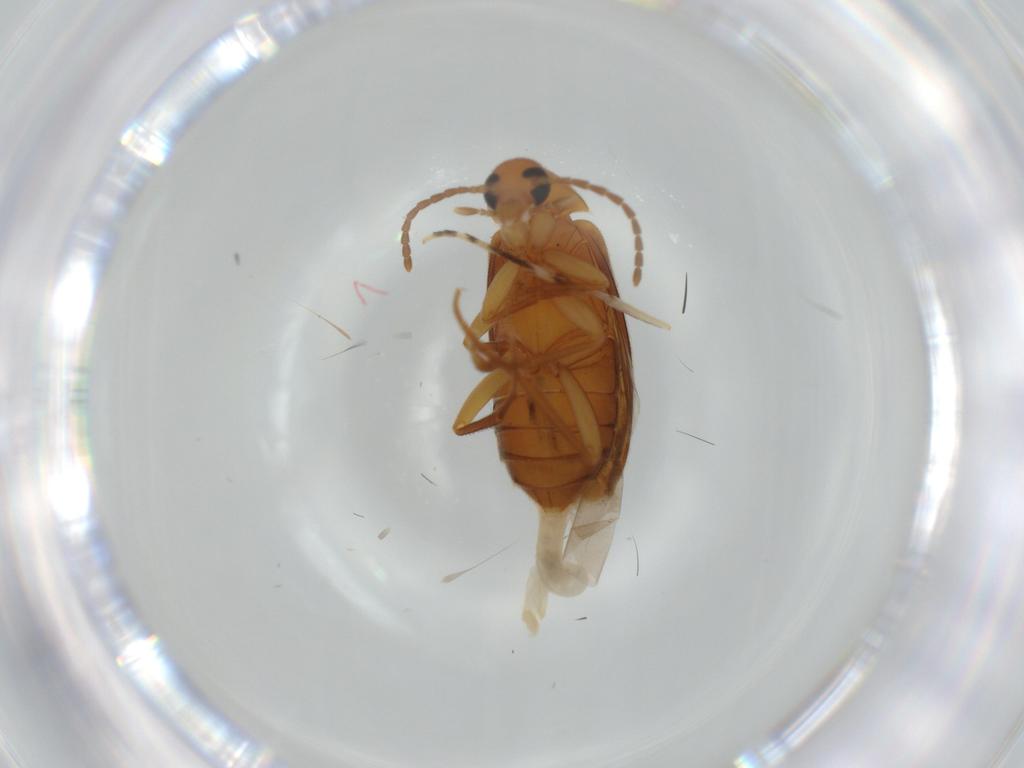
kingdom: Animalia
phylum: Arthropoda
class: Insecta
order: Coleoptera
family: Scraptiidae
